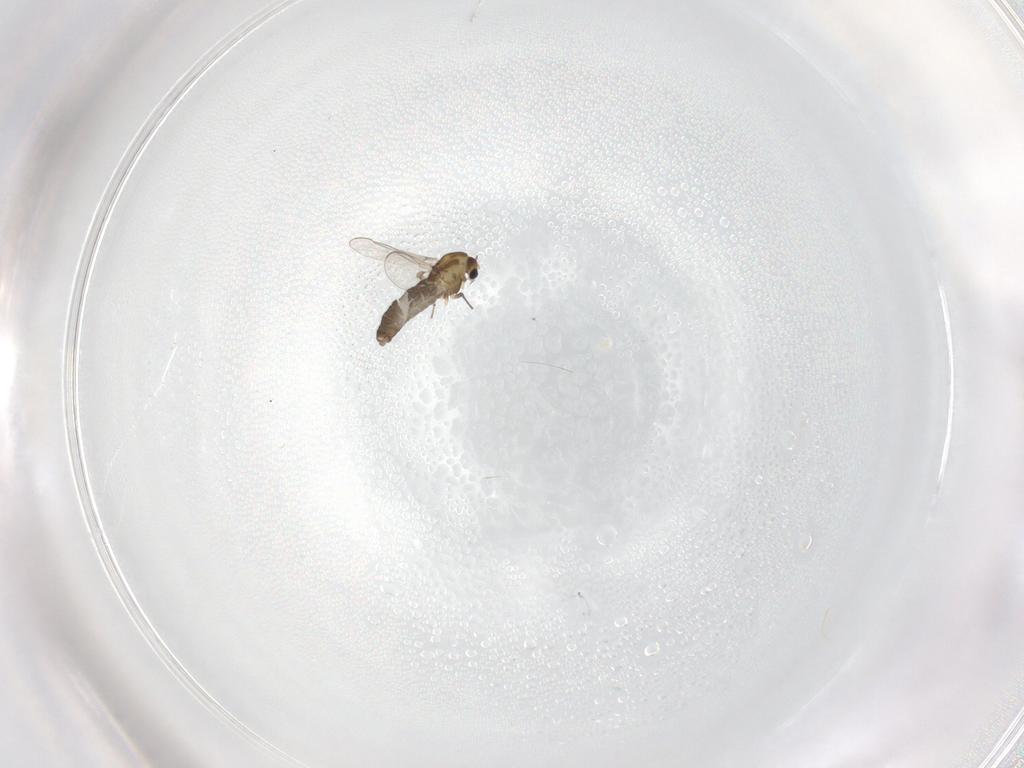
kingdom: Animalia
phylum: Arthropoda
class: Insecta
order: Diptera
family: Chironomidae
